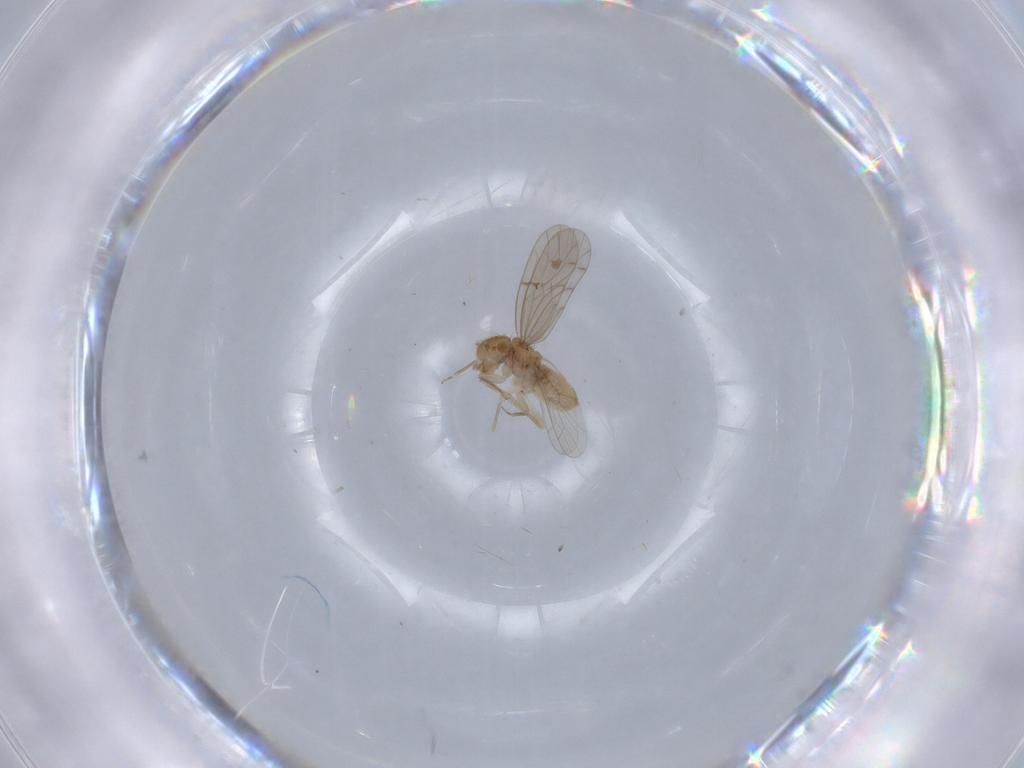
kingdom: Animalia
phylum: Arthropoda
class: Insecta
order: Psocodea
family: Ectopsocidae
